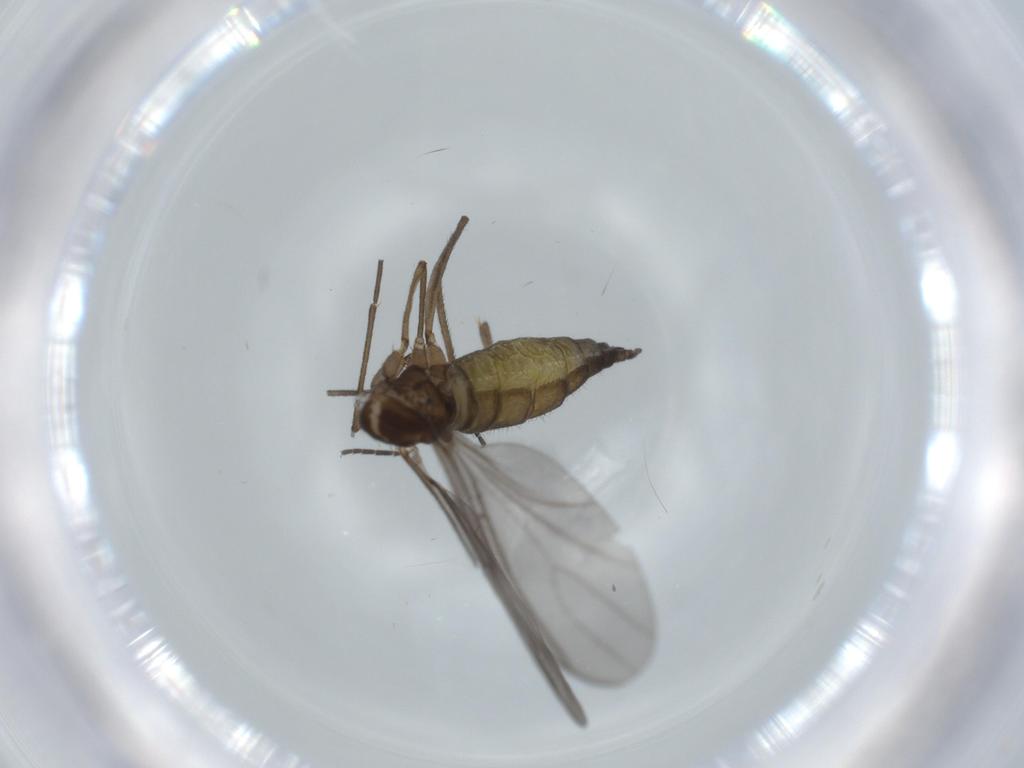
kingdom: Animalia
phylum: Arthropoda
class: Insecta
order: Diptera
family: Sciaridae
